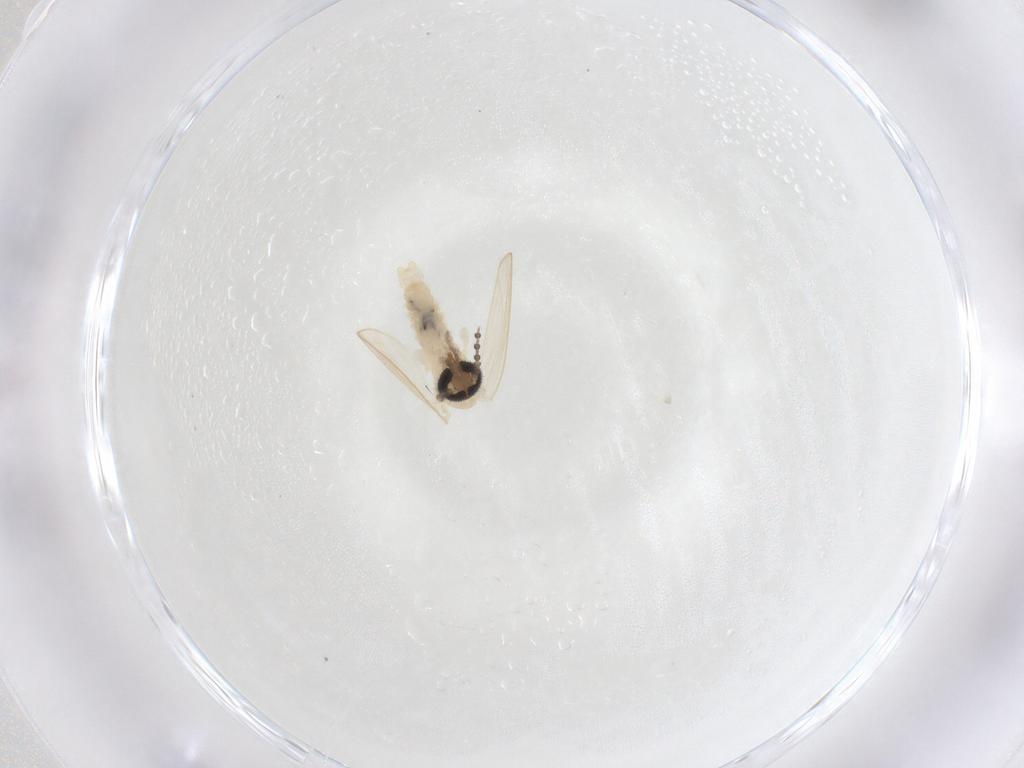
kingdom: Animalia
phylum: Arthropoda
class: Insecta
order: Diptera
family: Psychodidae
